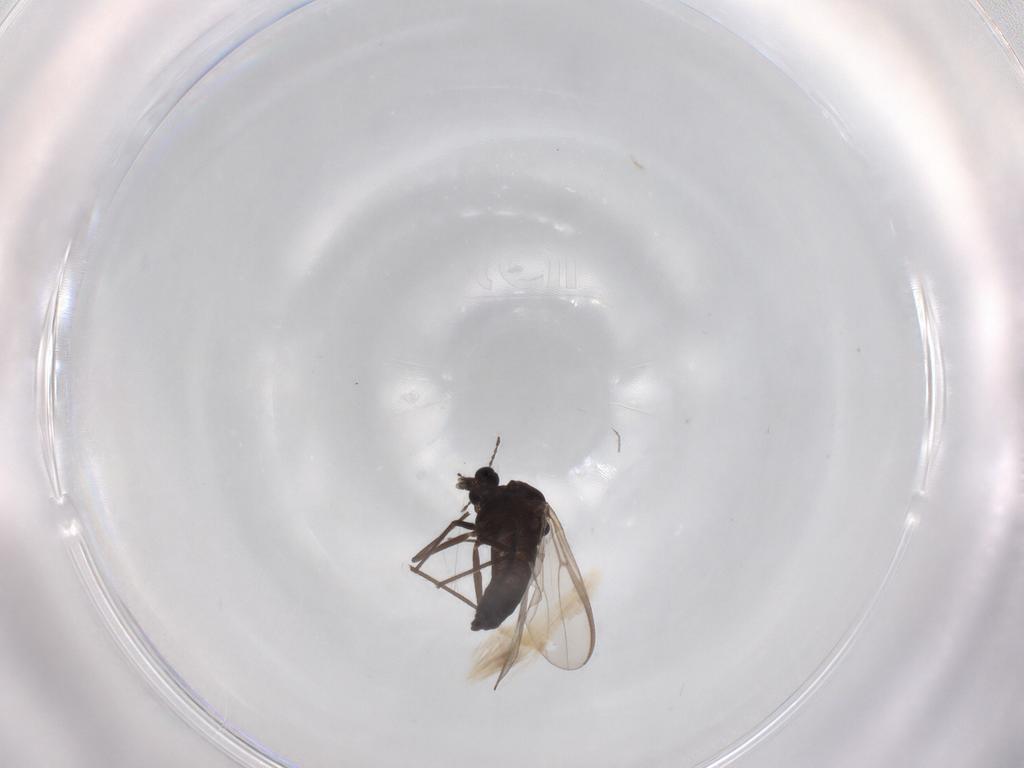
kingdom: Animalia
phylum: Arthropoda
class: Insecta
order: Diptera
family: Chironomidae
